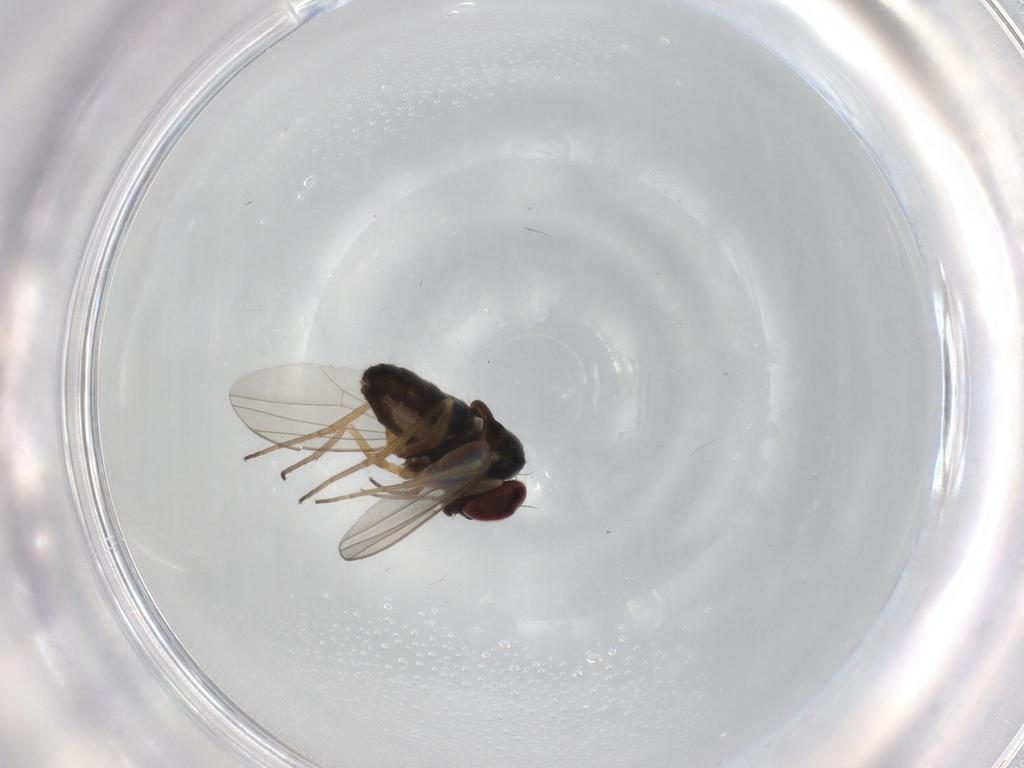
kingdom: Animalia
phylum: Arthropoda
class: Insecta
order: Diptera
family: Dolichopodidae
